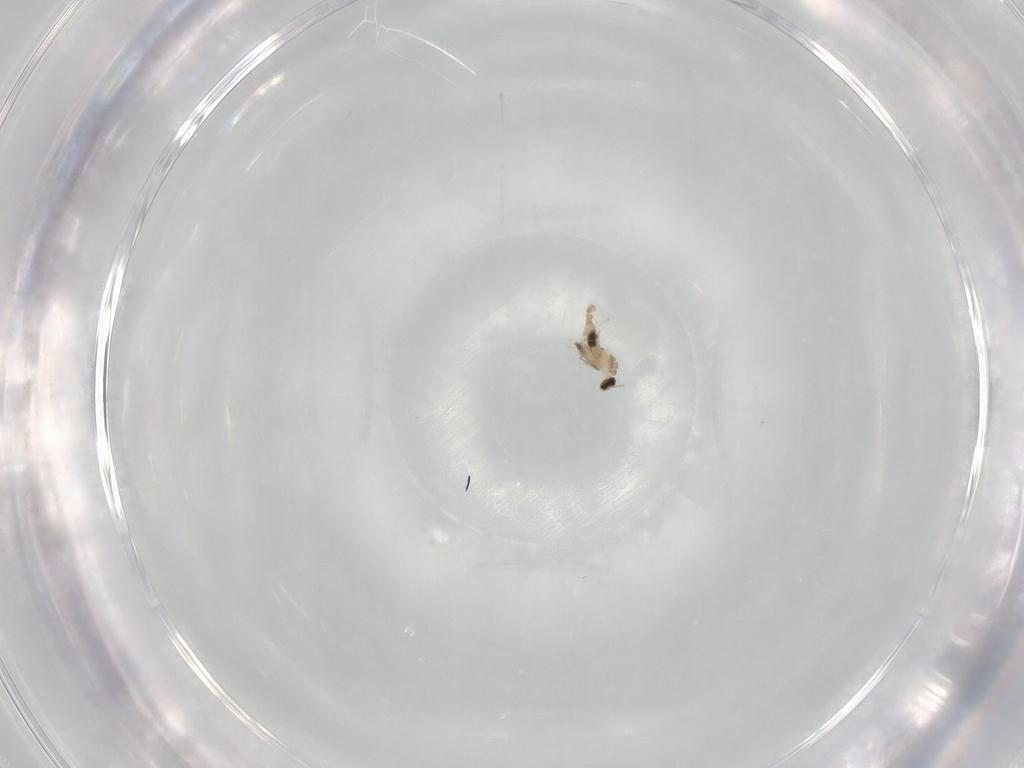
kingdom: Animalia
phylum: Arthropoda
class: Insecta
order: Diptera
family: Cecidomyiidae
